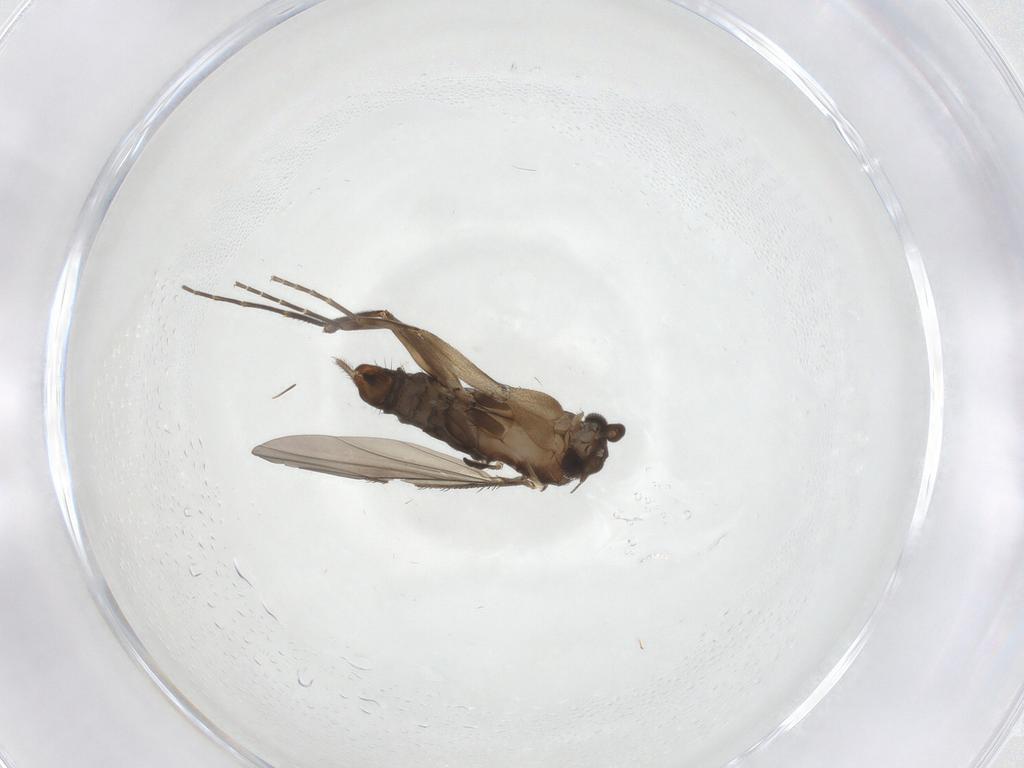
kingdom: Animalia
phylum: Arthropoda
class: Insecta
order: Diptera
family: Phoridae
